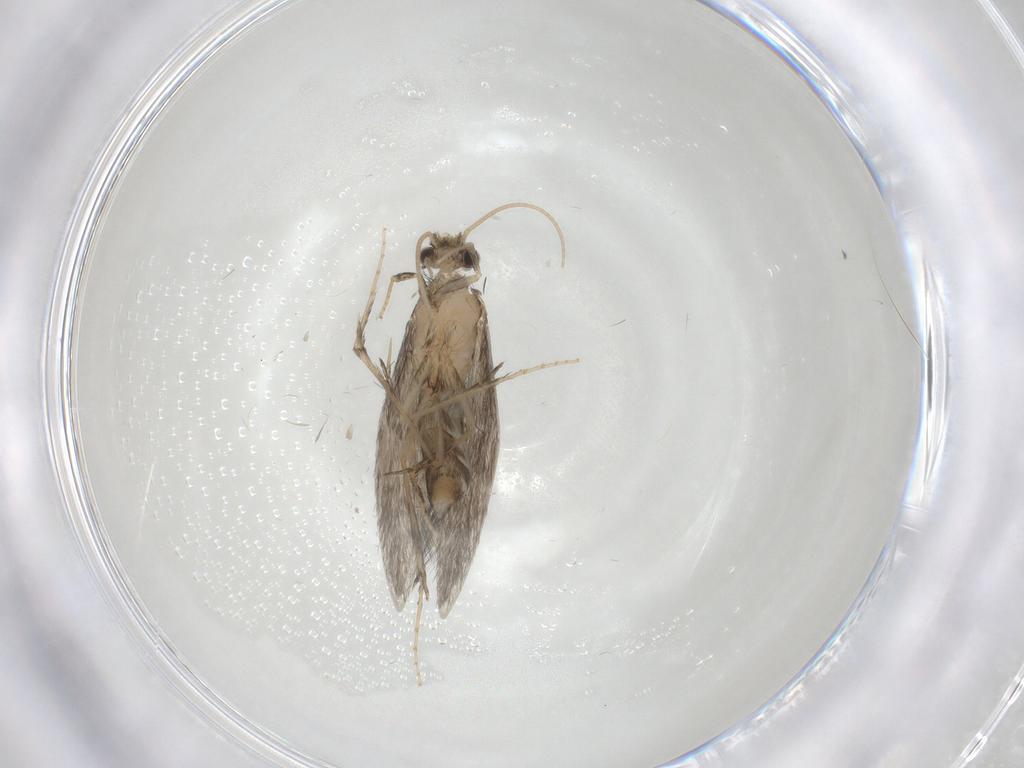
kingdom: Animalia
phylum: Arthropoda
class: Insecta
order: Trichoptera
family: Hydroptilidae
